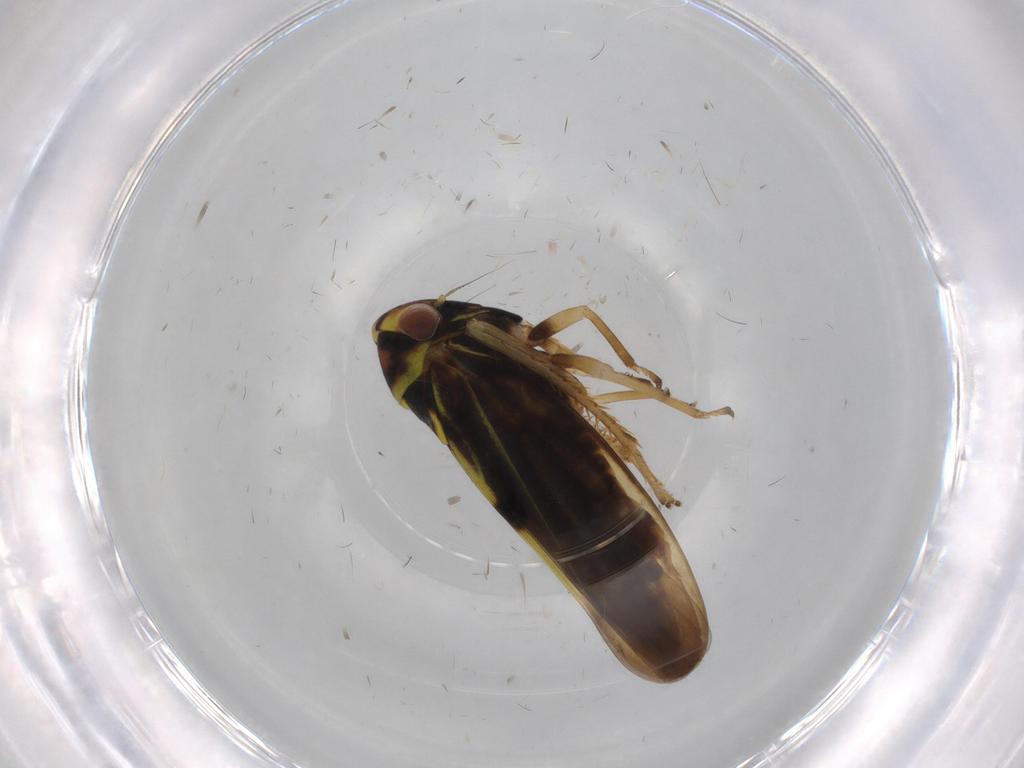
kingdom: Animalia
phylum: Arthropoda
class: Insecta
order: Hemiptera
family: Cicadellidae
